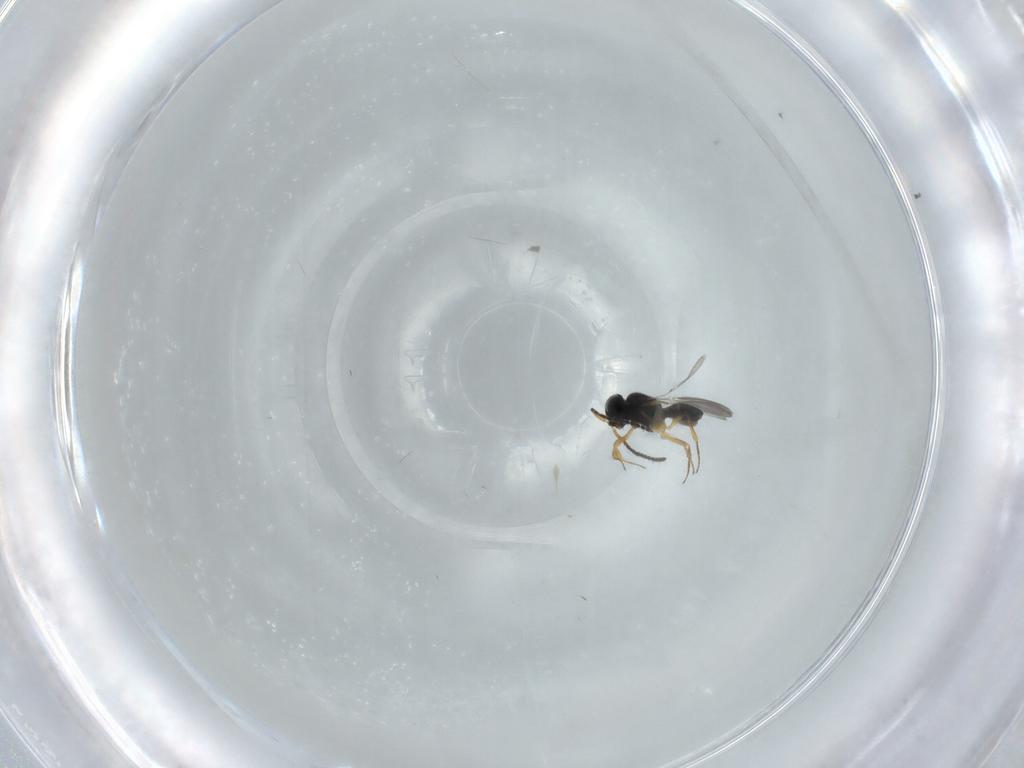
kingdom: Animalia
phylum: Arthropoda
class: Insecta
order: Hymenoptera
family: Scelionidae
